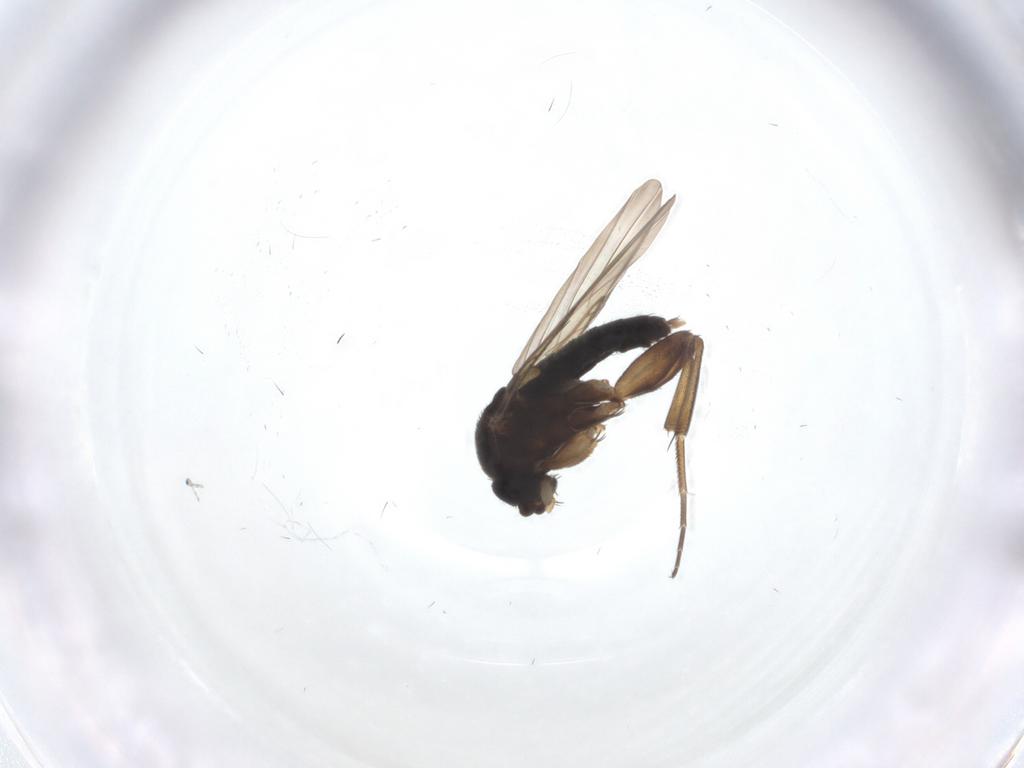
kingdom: Animalia
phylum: Arthropoda
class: Insecta
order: Diptera
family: Phoridae
